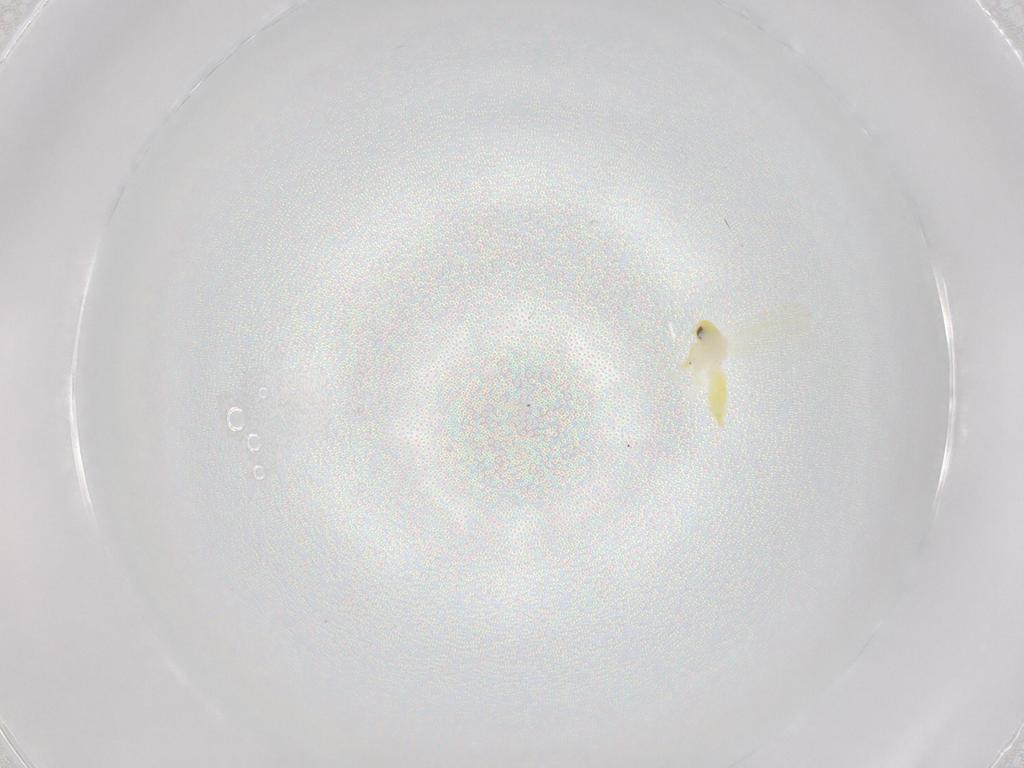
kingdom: Animalia
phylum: Arthropoda
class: Insecta
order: Hemiptera
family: Aleyrodidae
